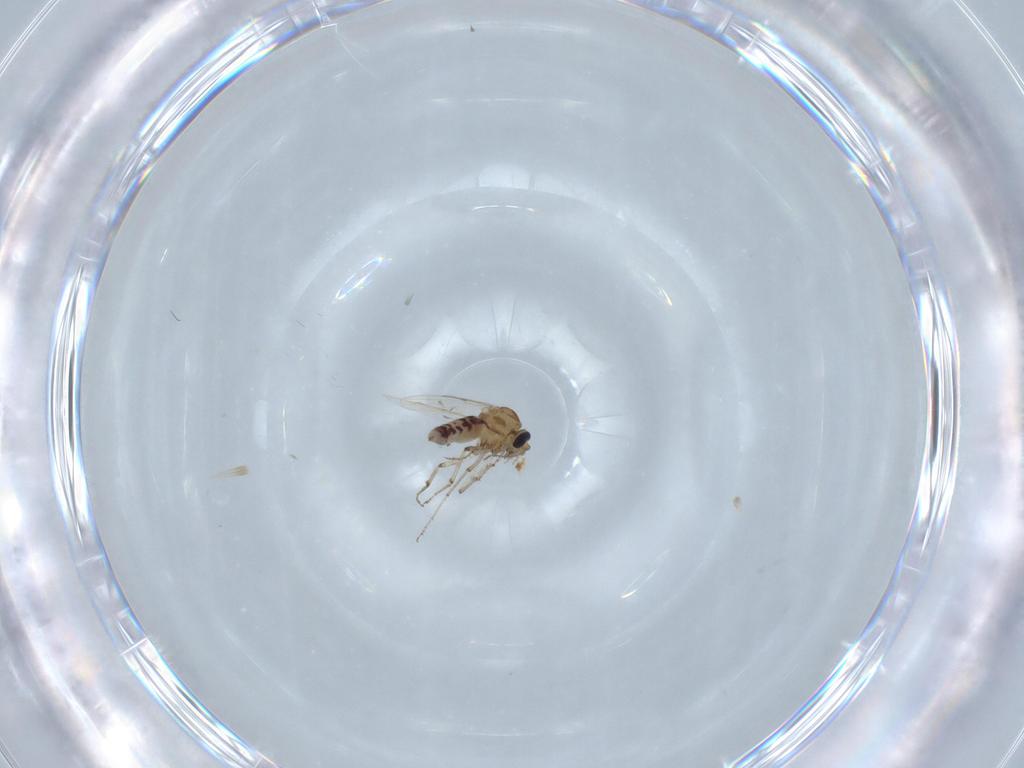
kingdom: Animalia
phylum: Arthropoda
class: Insecta
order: Diptera
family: Ceratopogonidae
